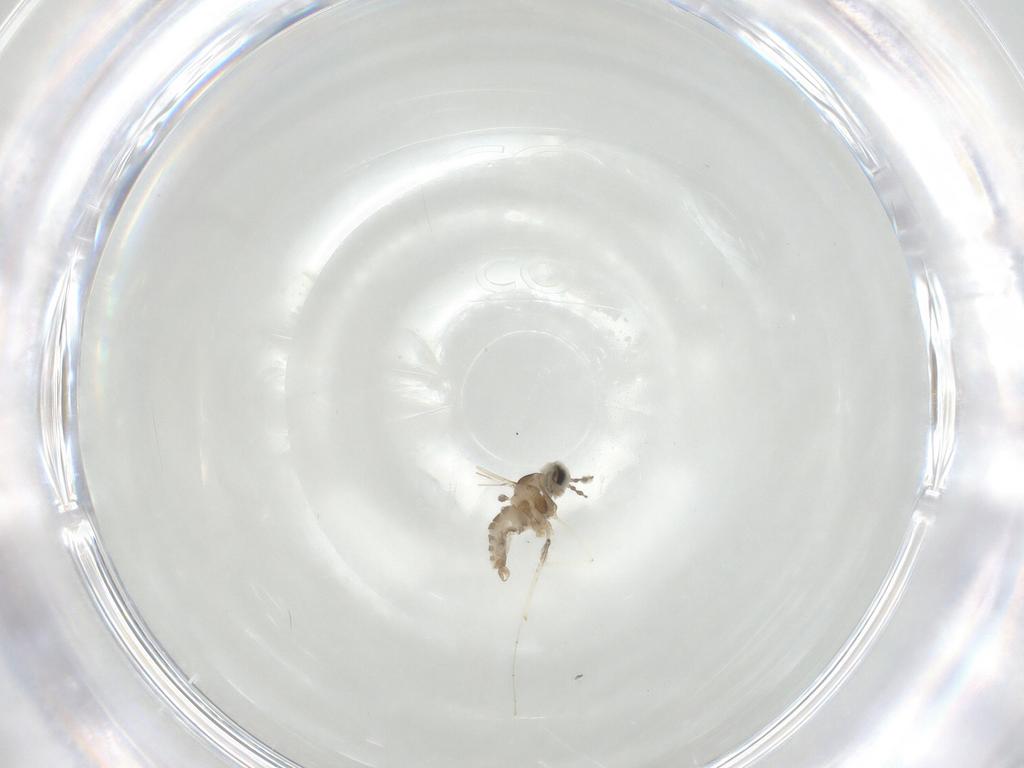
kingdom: Animalia
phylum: Arthropoda
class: Insecta
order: Diptera
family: Cecidomyiidae
